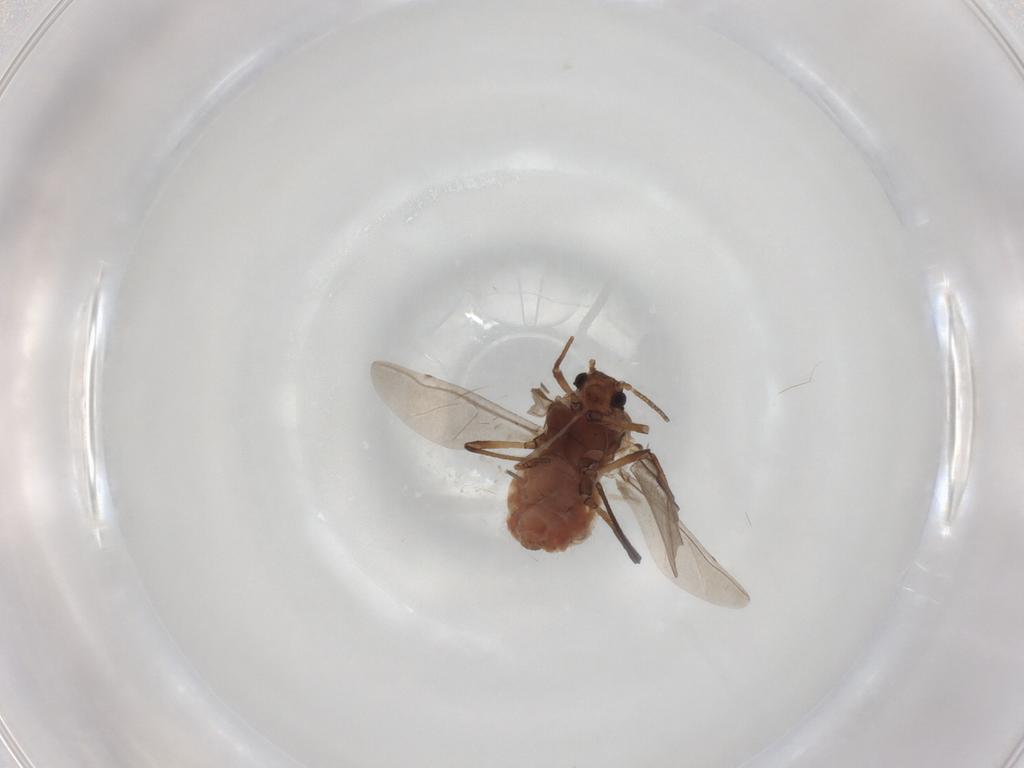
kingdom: Animalia
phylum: Arthropoda
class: Insecta
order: Hemiptera
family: Aphididae
